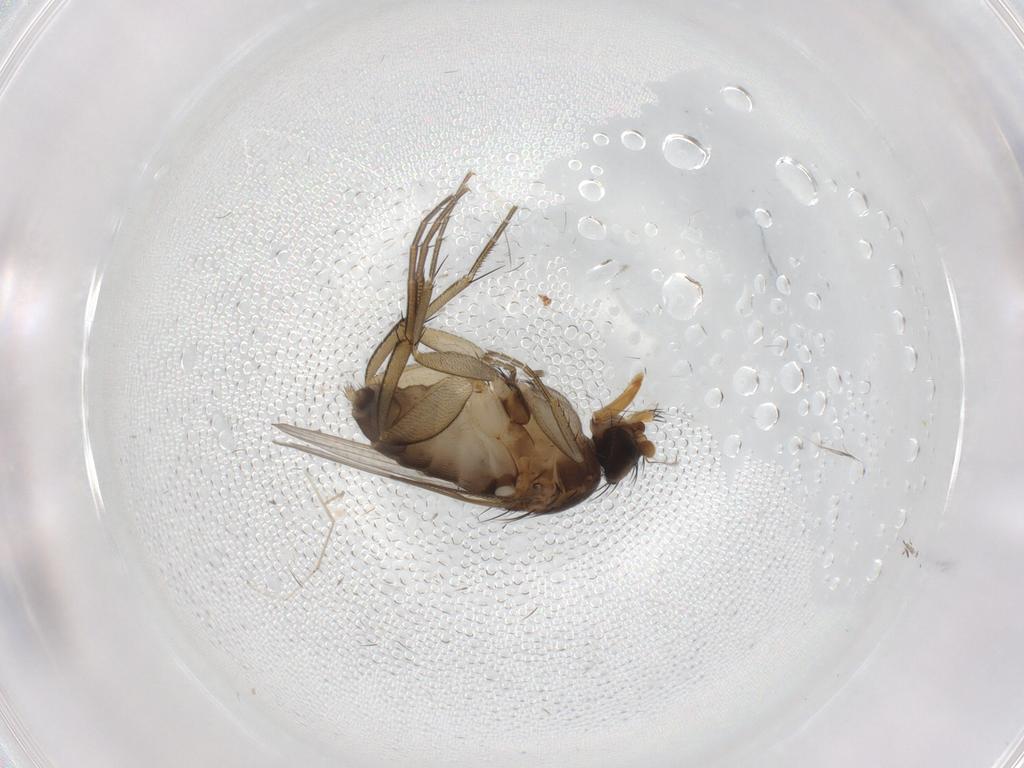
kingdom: Animalia
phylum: Arthropoda
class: Insecta
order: Diptera
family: Phoridae
